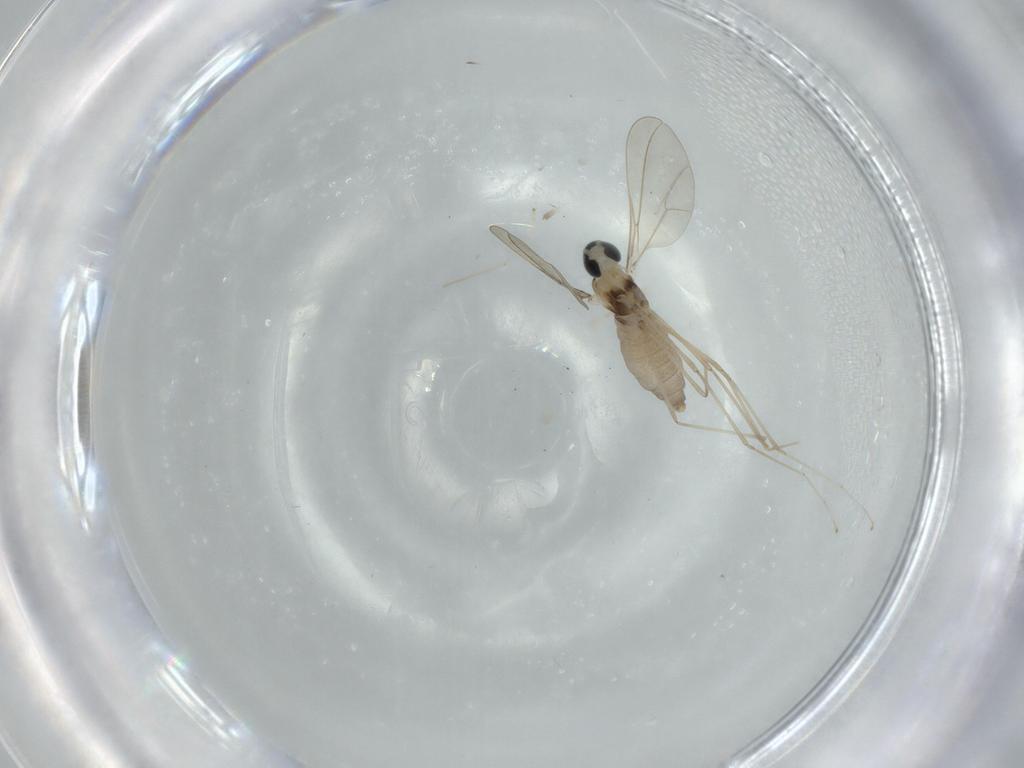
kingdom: Animalia
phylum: Arthropoda
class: Insecta
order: Diptera
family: Cecidomyiidae
